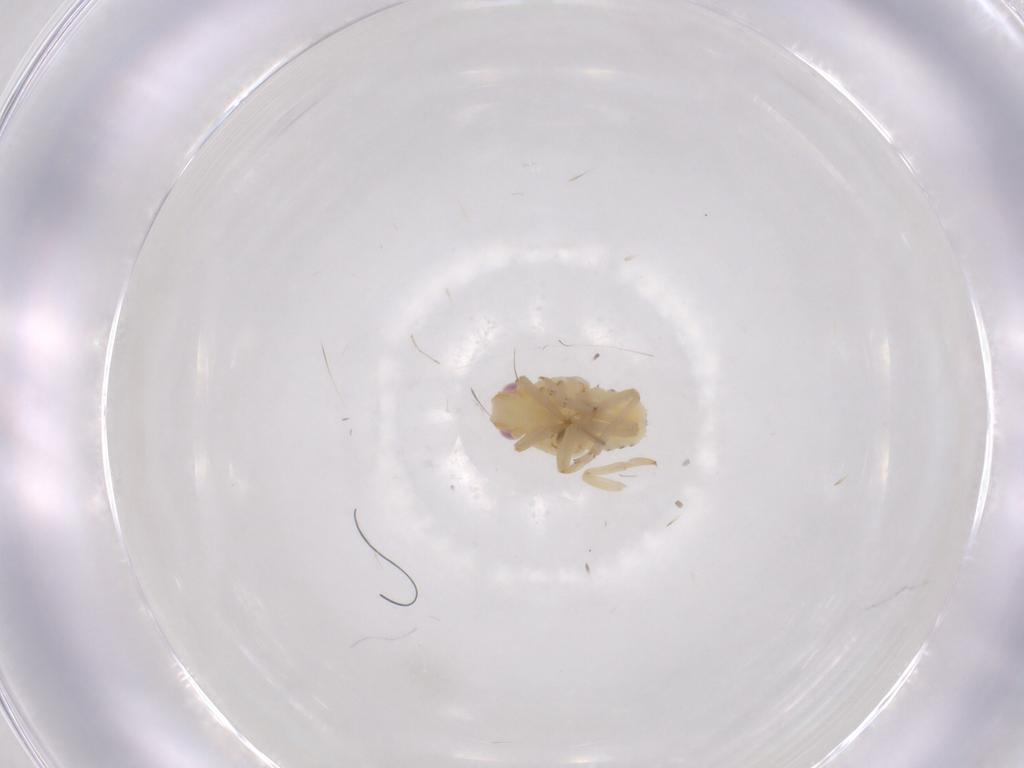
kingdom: Animalia
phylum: Arthropoda
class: Insecta
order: Hemiptera
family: Tropiduchidae
